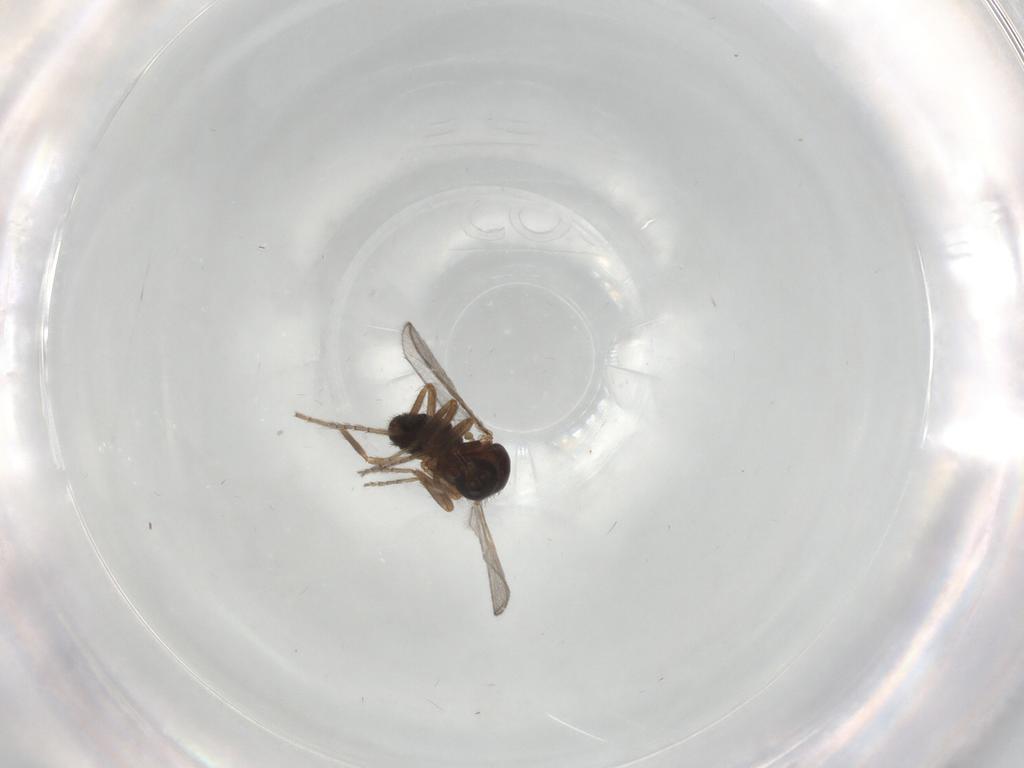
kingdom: Animalia
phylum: Arthropoda
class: Insecta
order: Diptera
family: Ceratopogonidae
